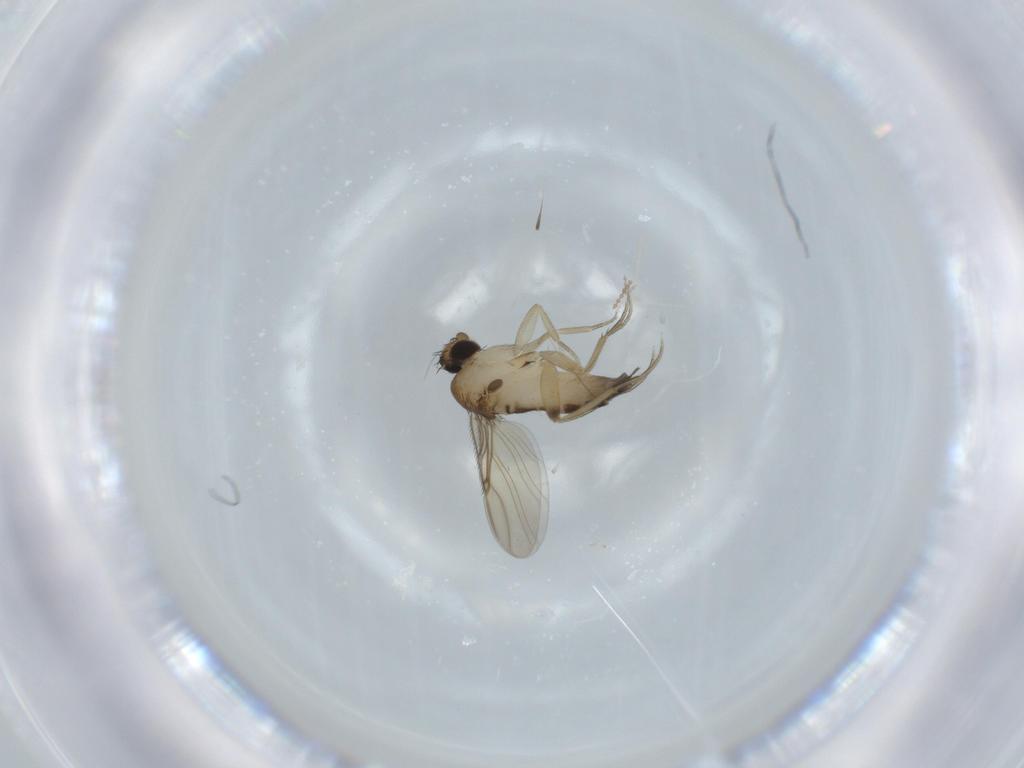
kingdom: Animalia
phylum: Arthropoda
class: Insecta
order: Diptera
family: Phoridae
